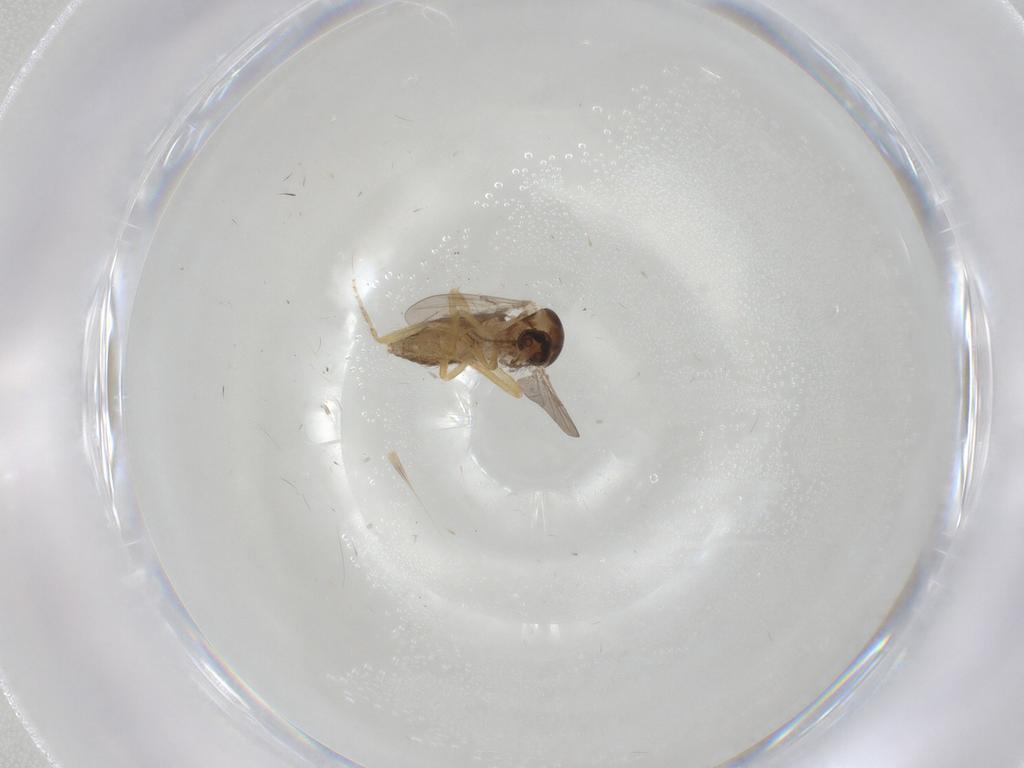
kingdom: Animalia
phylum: Arthropoda
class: Insecta
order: Diptera
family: Ceratopogonidae
